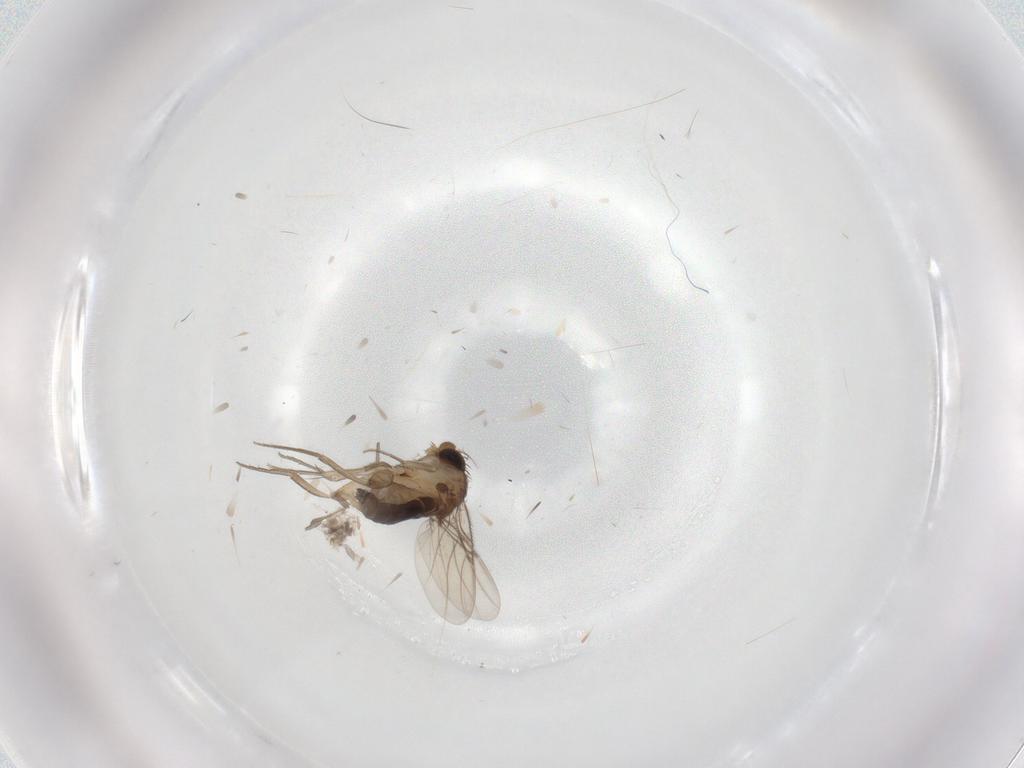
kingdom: Animalia
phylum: Arthropoda
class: Insecta
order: Diptera
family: Phoridae
